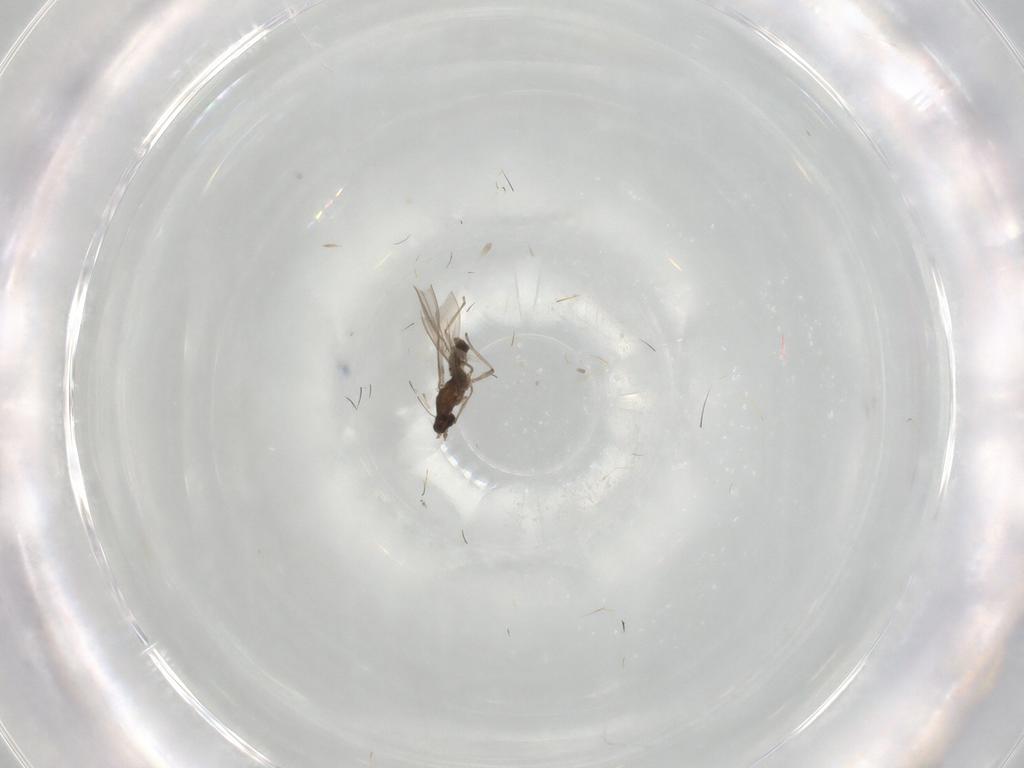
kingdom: Animalia
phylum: Arthropoda
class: Insecta
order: Diptera
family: Cecidomyiidae
